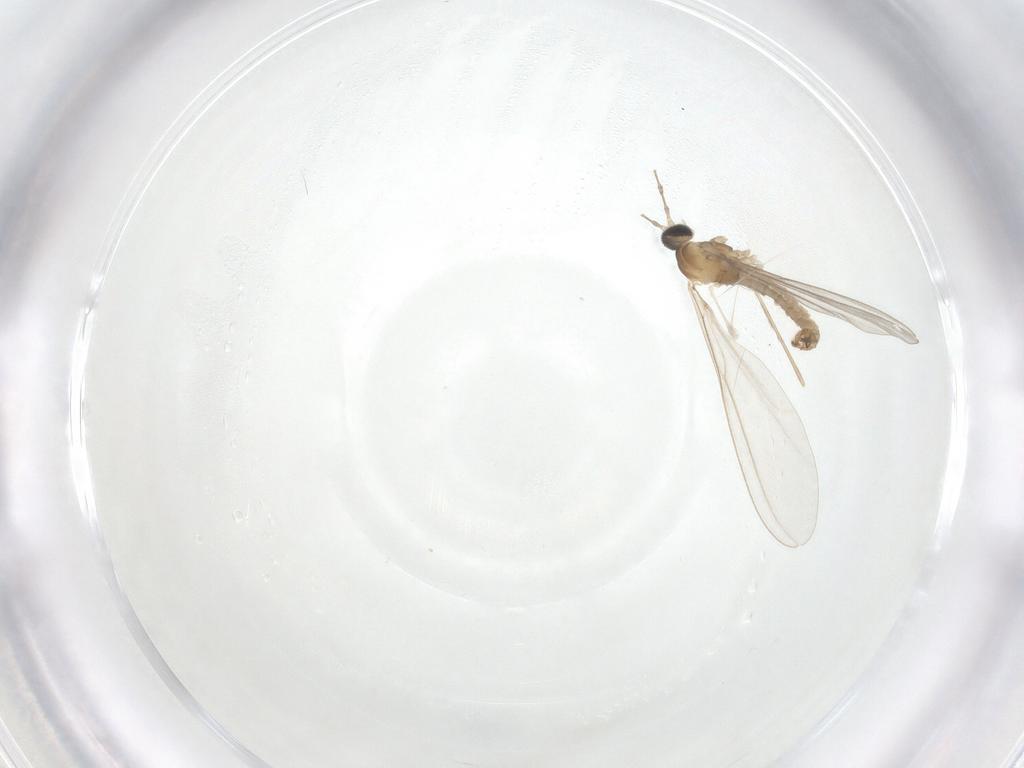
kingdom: Animalia
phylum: Arthropoda
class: Insecta
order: Diptera
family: Cecidomyiidae
